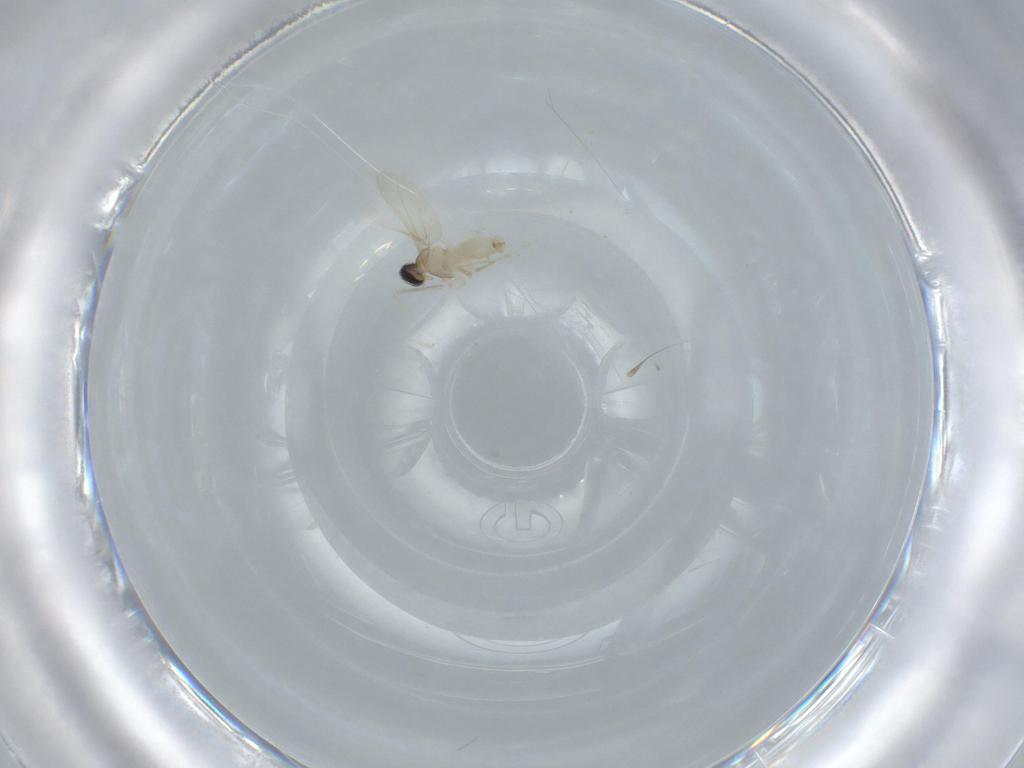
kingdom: Animalia
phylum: Arthropoda
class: Insecta
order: Diptera
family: Cecidomyiidae
